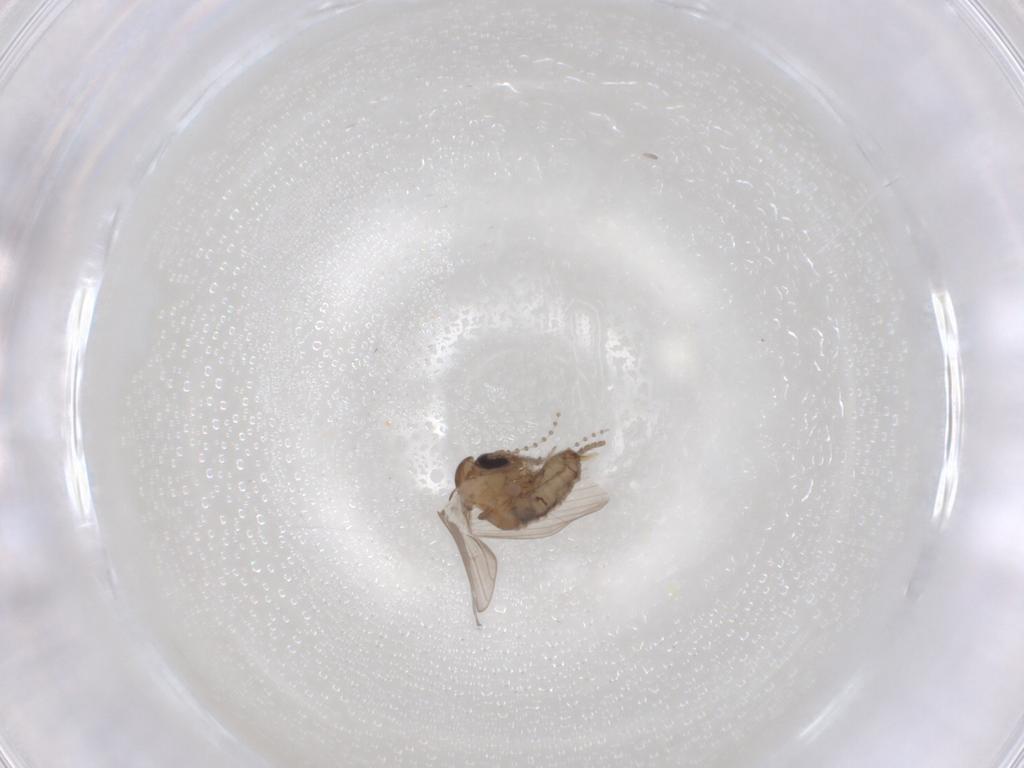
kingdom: Animalia
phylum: Arthropoda
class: Insecta
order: Diptera
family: Psychodidae
